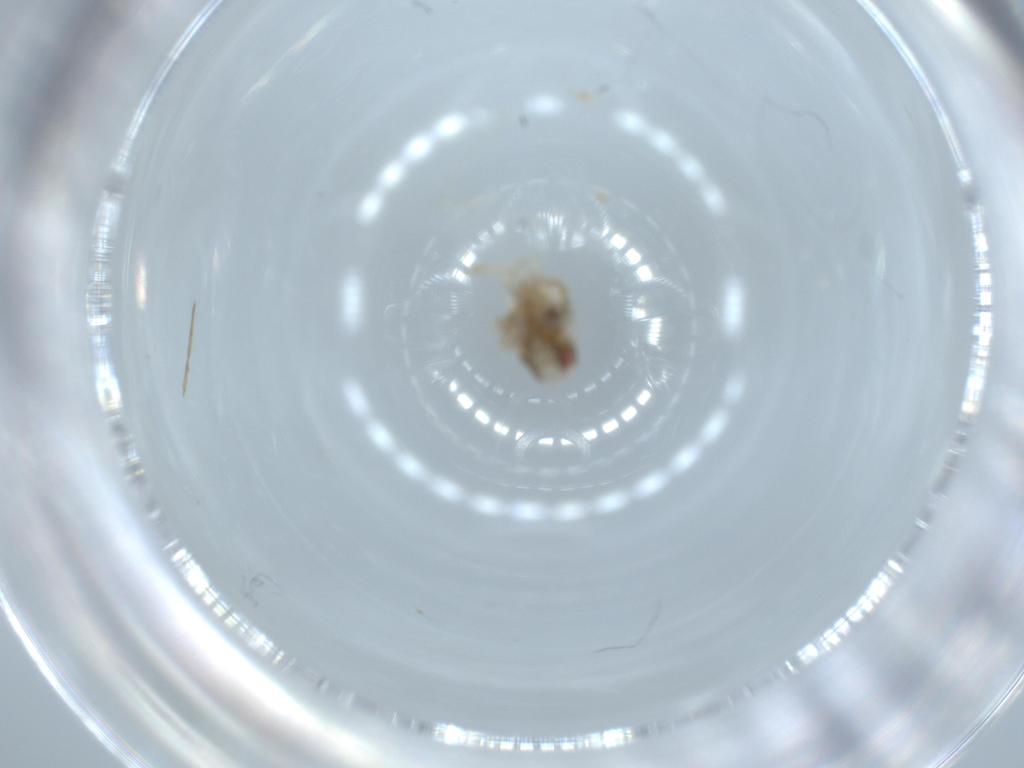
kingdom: Animalia
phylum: Arthropoda
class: Insecta
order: Hemiptera
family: Acanaloniidae
